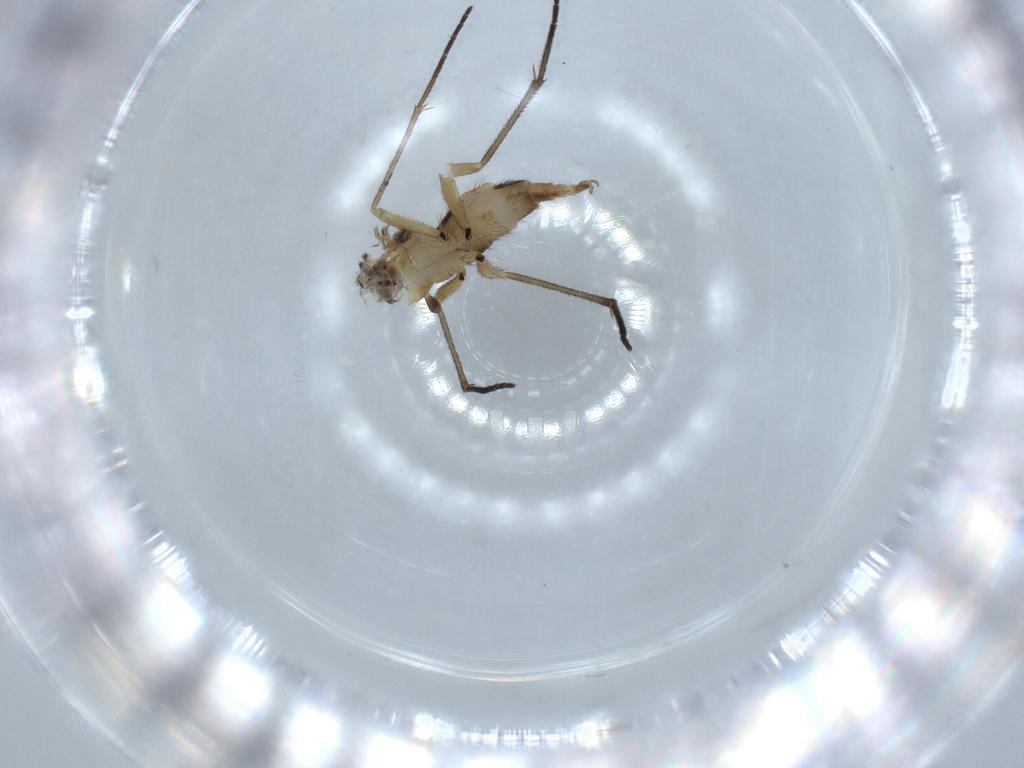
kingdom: Animalia
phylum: Arthropoda
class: Insecta
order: Diptera
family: Sciaridae
